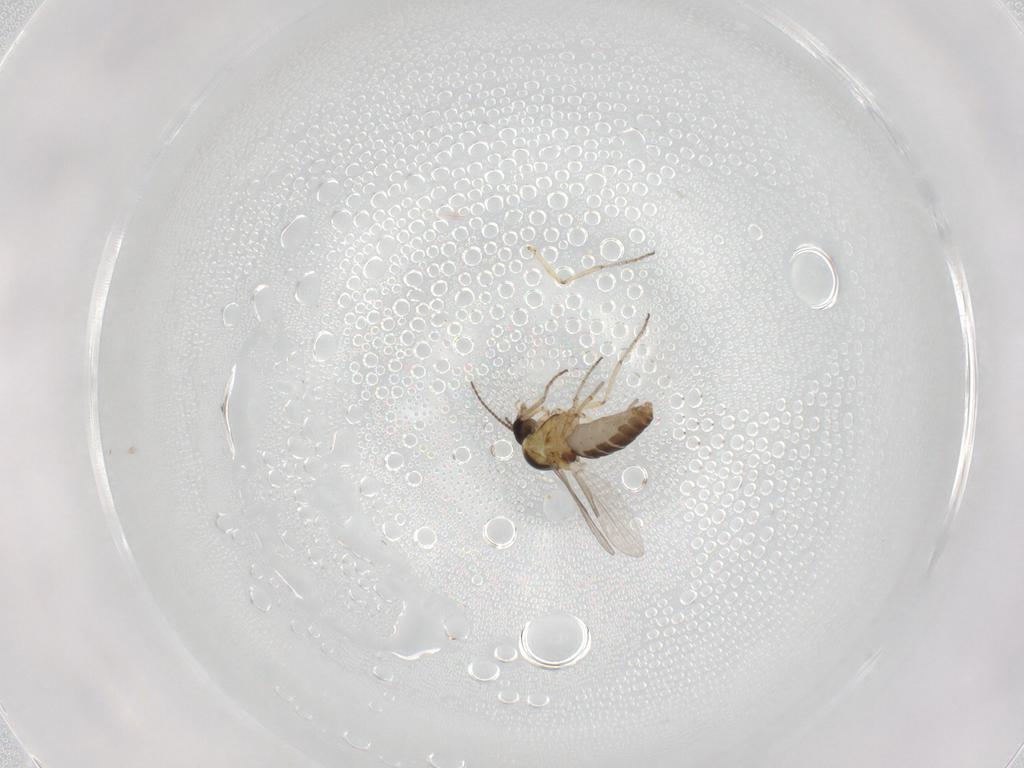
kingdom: Animalia
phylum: Arthropoda
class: Insecta
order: Diptera
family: Ceratopogonidae
